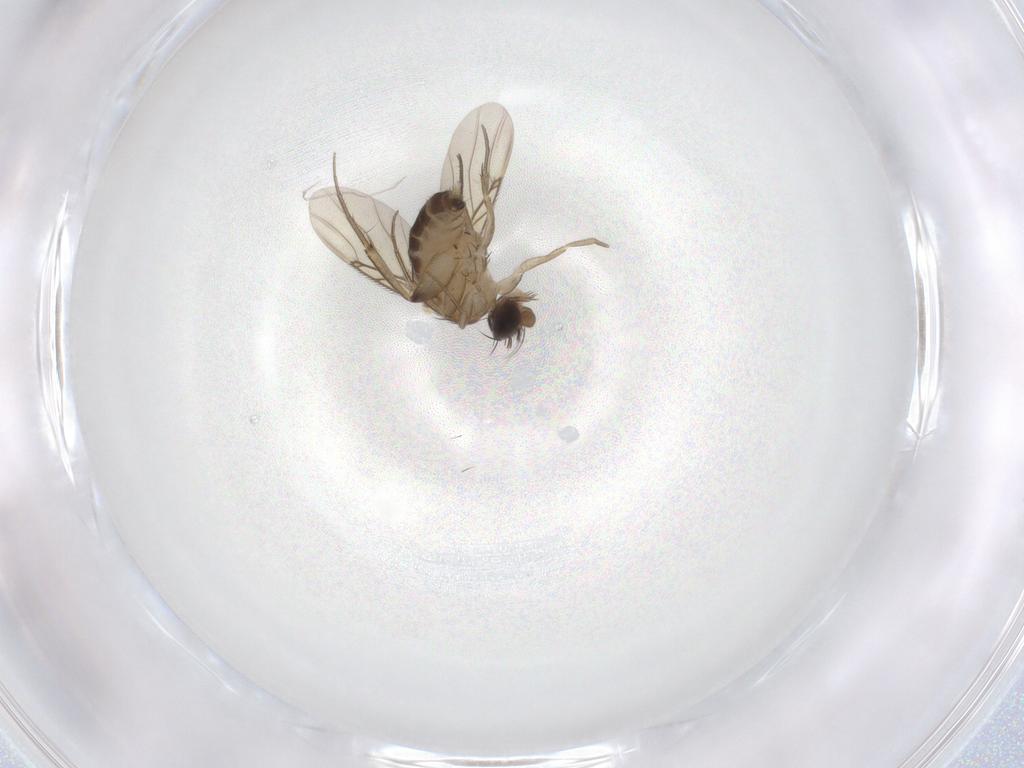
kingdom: Animalia
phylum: Arthropoda
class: Insecta
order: Diptera
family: Phoridae
